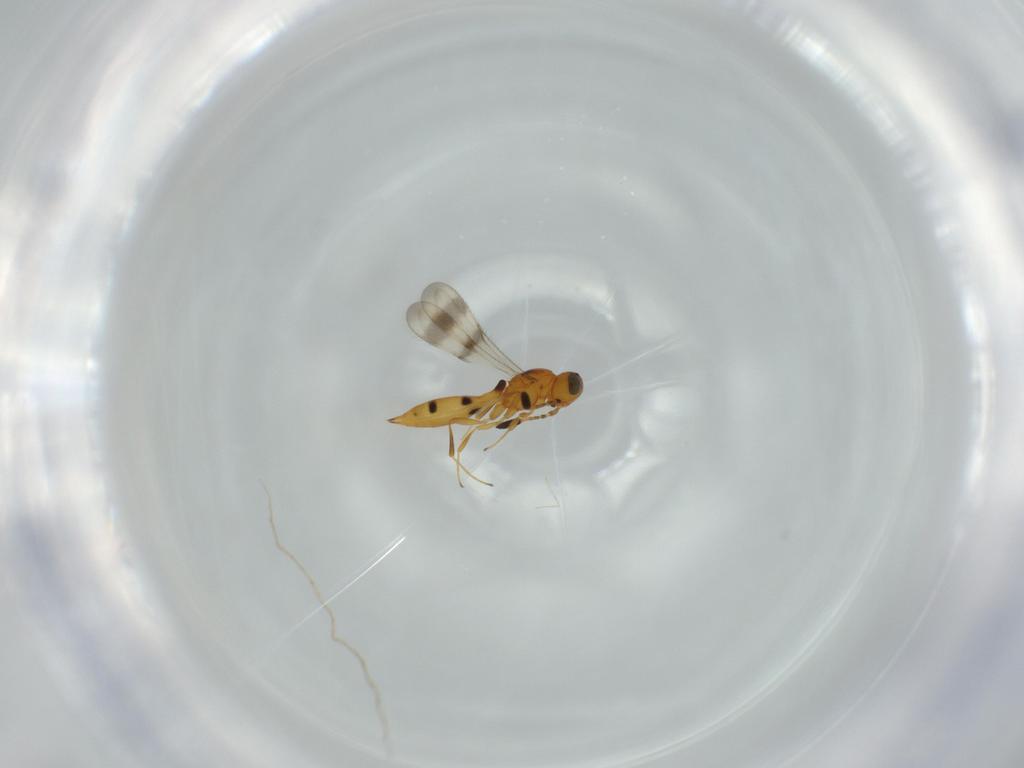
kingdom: Animalia
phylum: Arthropoda
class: Insecta
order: Hymenoptera
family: Scelionidae
